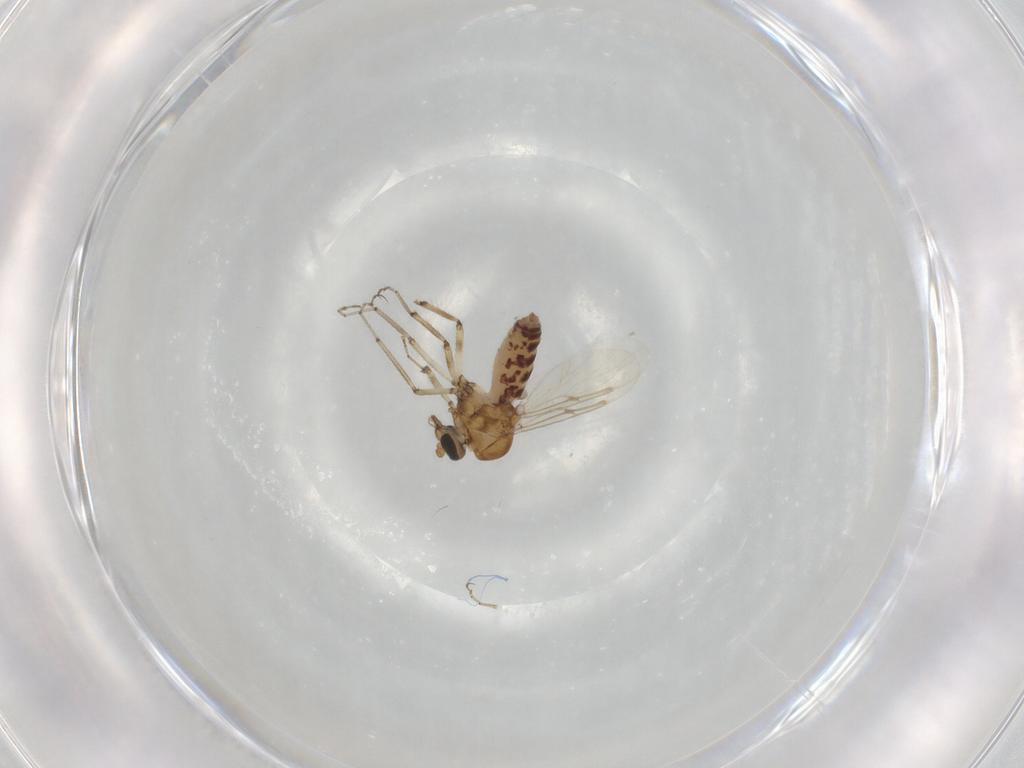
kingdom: Animalia
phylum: Arthropoda
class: Insecta
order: Diptera
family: Ceratopogonidae
